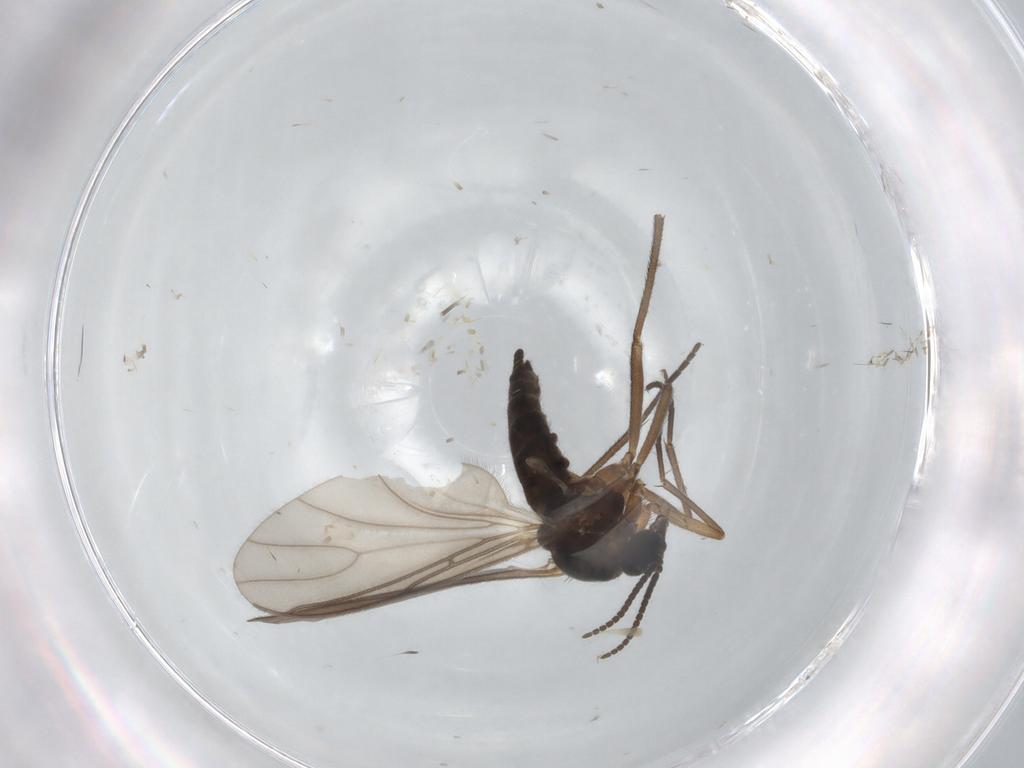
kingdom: Animalia
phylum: Arthropoda
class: Insecta
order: Diptera
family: Sciaridae
